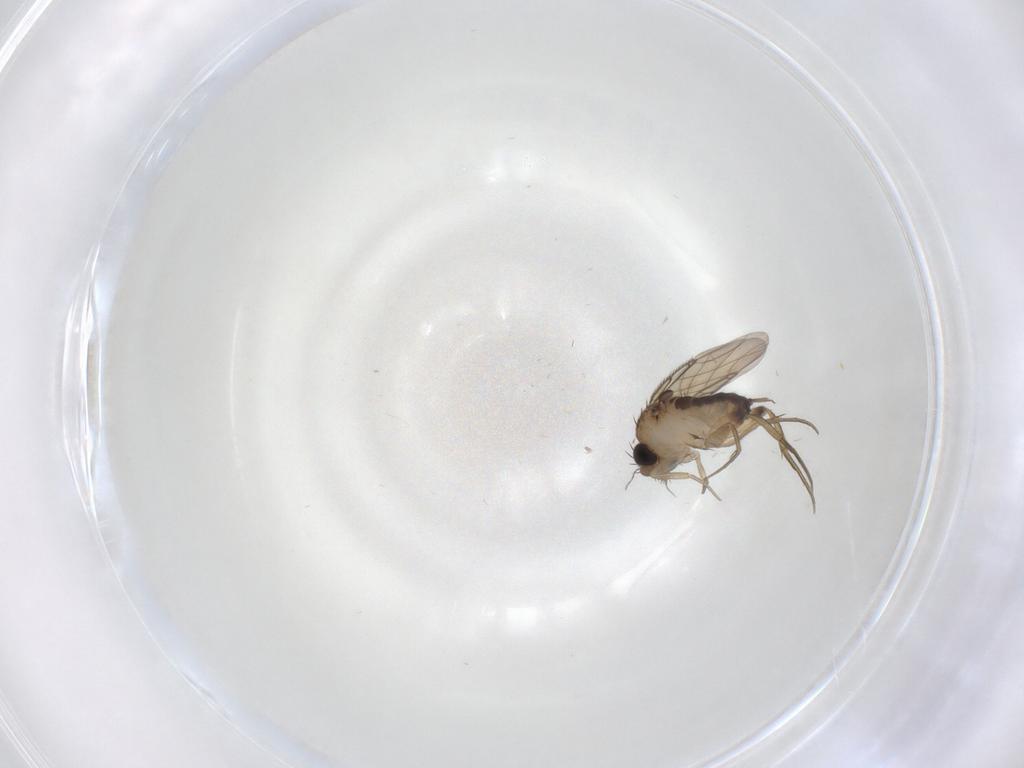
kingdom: Animalia
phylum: Arthropoda
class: Insecta
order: Diptera
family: Phoridae
